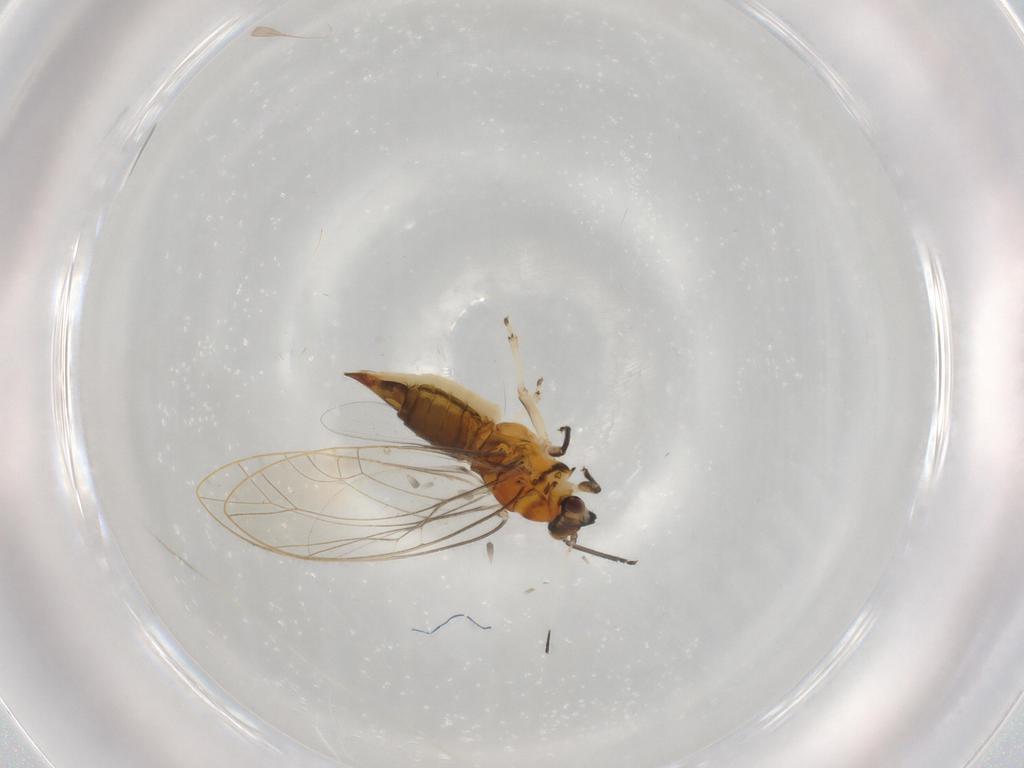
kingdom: Animalia
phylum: Arthropoda
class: Insecta
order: Hemiptera
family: Triozidae
